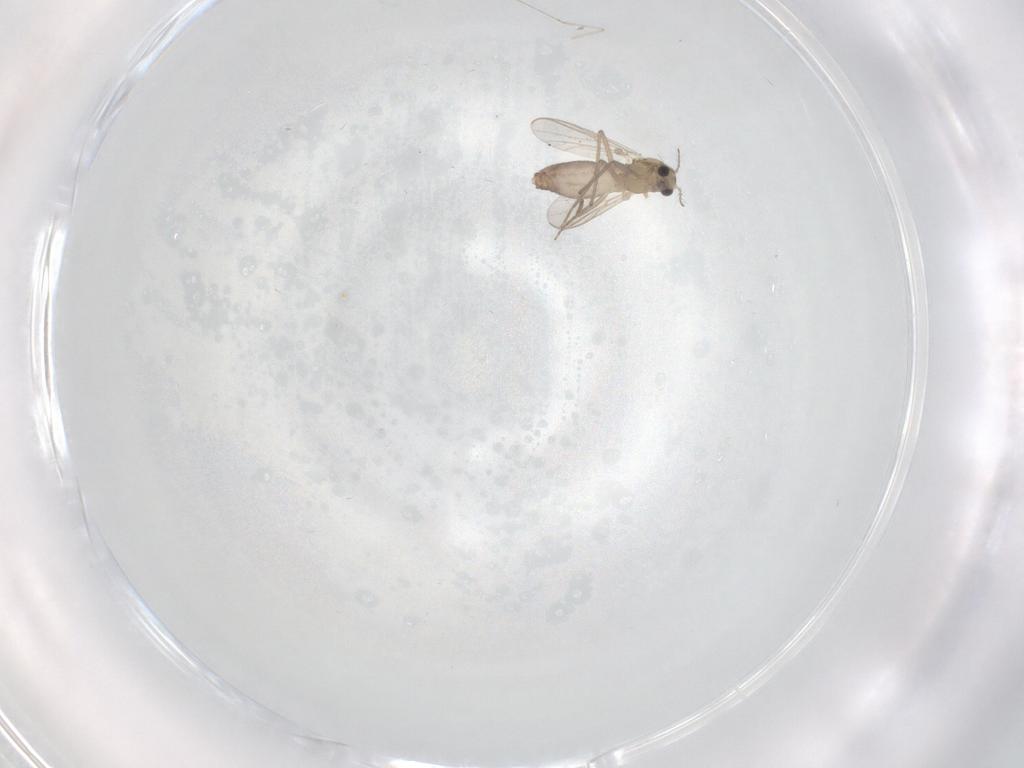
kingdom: Animalia
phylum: Arthropoda
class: Insecta
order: Diptera
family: Chironomidae
